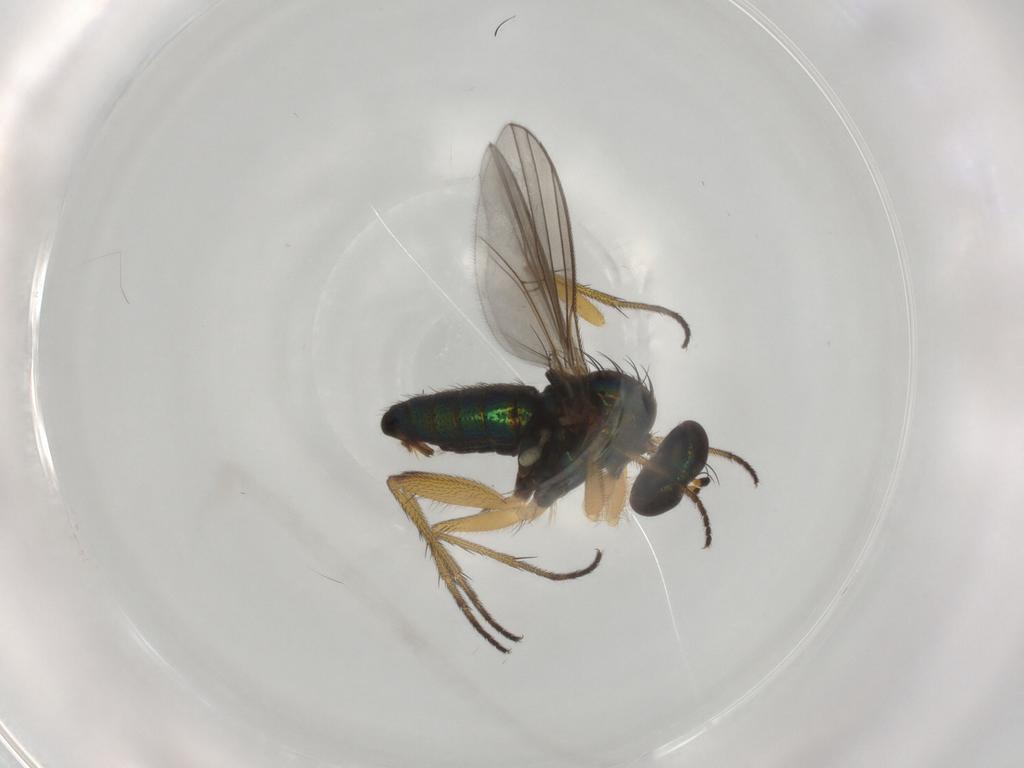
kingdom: Animalia
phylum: Arthropoda
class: Insecta
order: Diptera
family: Dolichopodidae
